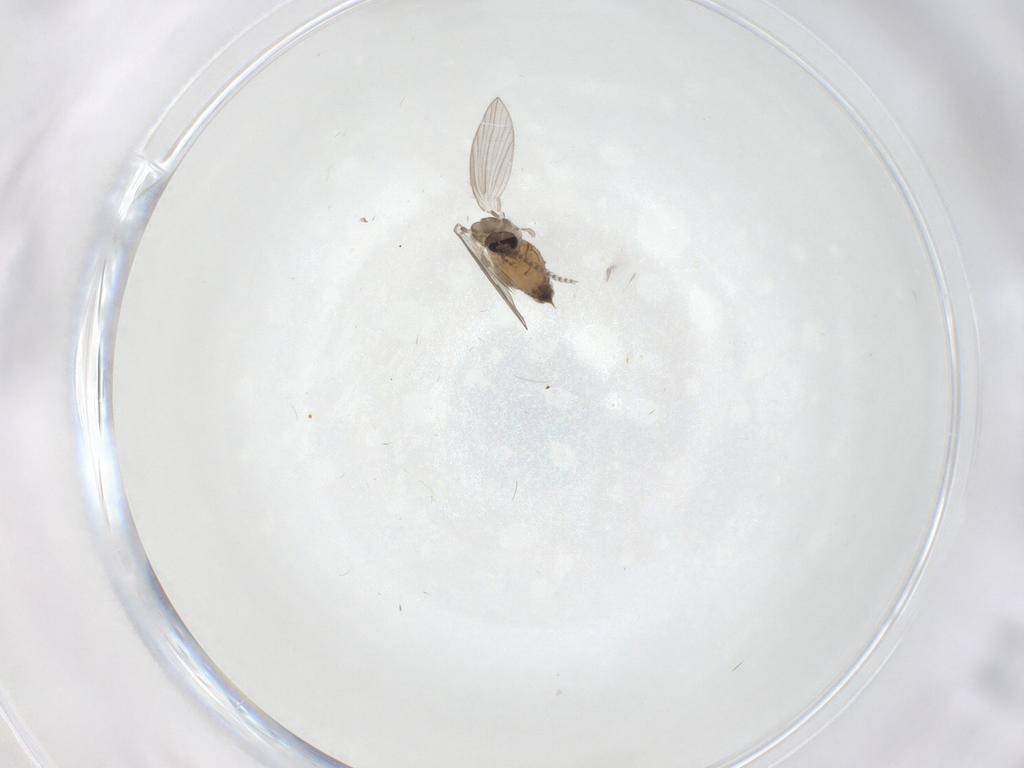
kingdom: Animalia
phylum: Arthropoda
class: Insecta
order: Diptera
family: Psychodidae
